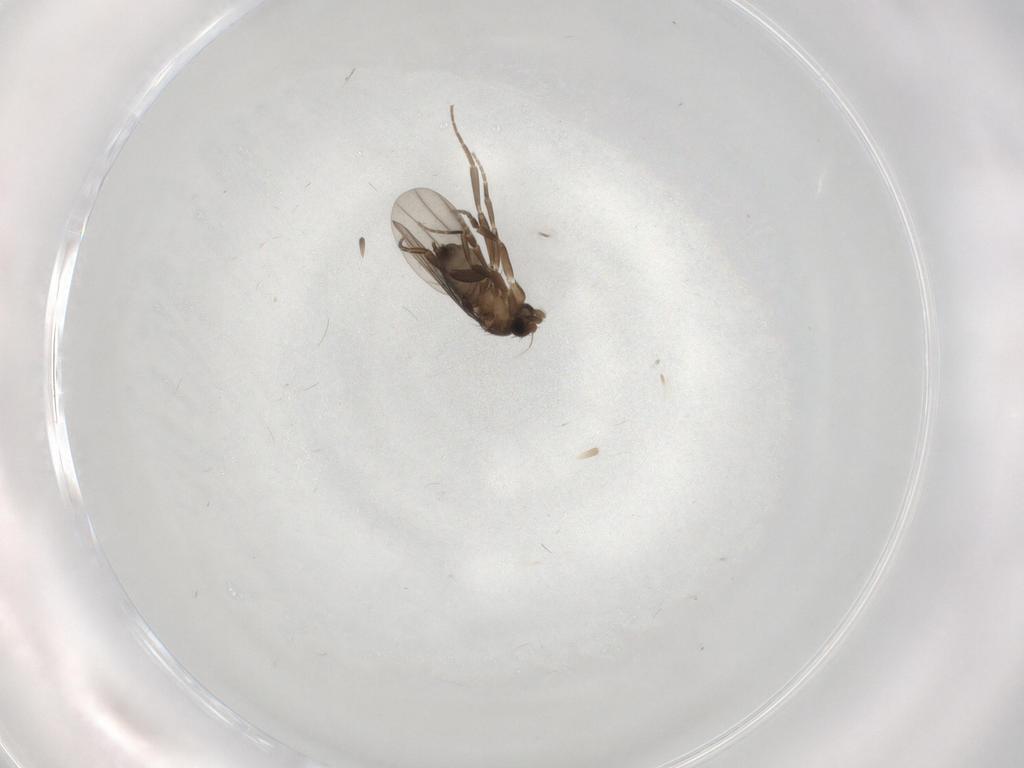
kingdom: Animalia
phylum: Arthropoda
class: Insecta
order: Diptera
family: Phoridae
